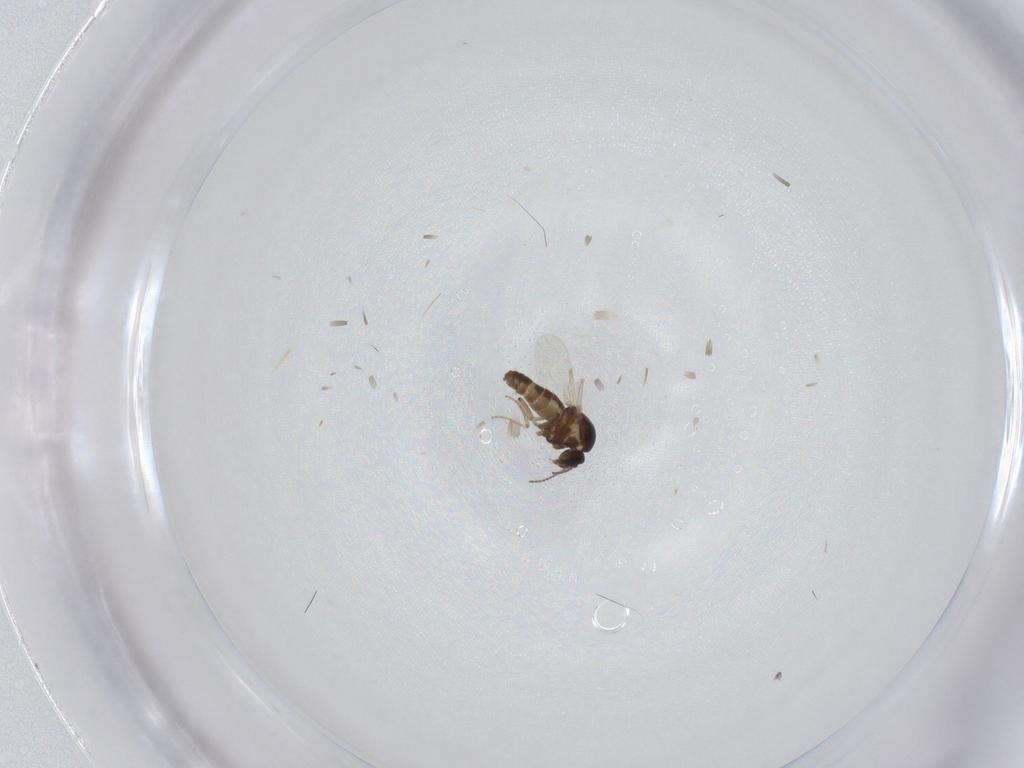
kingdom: Animalia
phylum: Arthropoda
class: Insecta
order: Diptera
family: Ceratopogonidae
